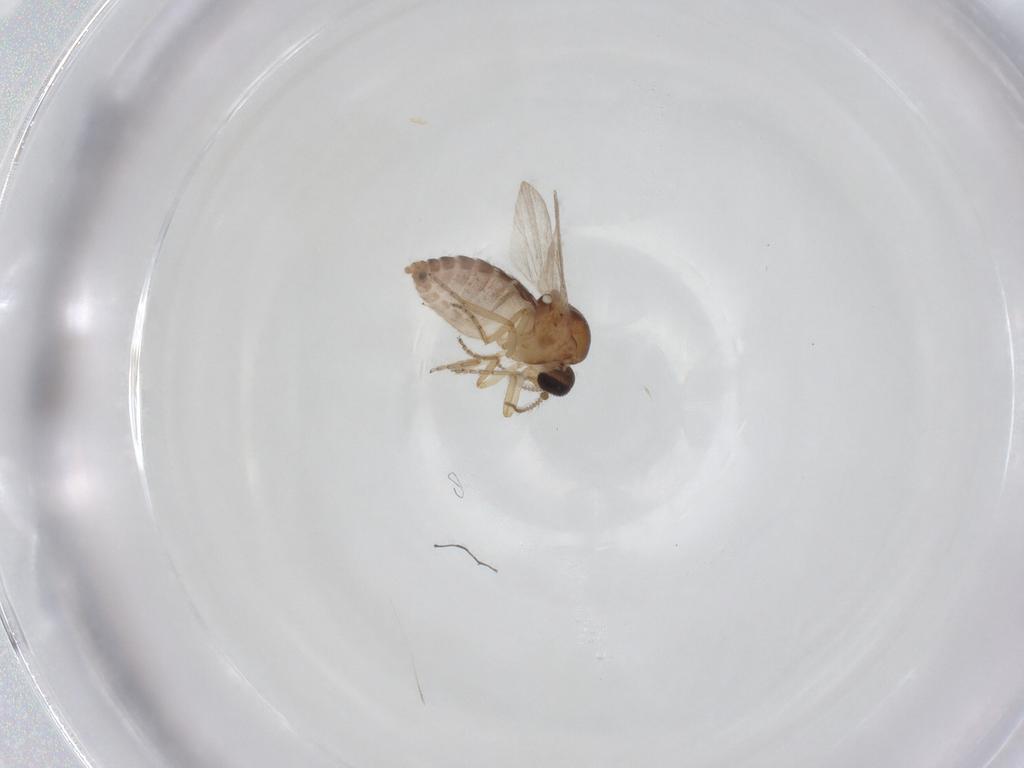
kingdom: Animalia
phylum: Arthropoda
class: Insecta
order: Diptera
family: Ceratopogonidae
